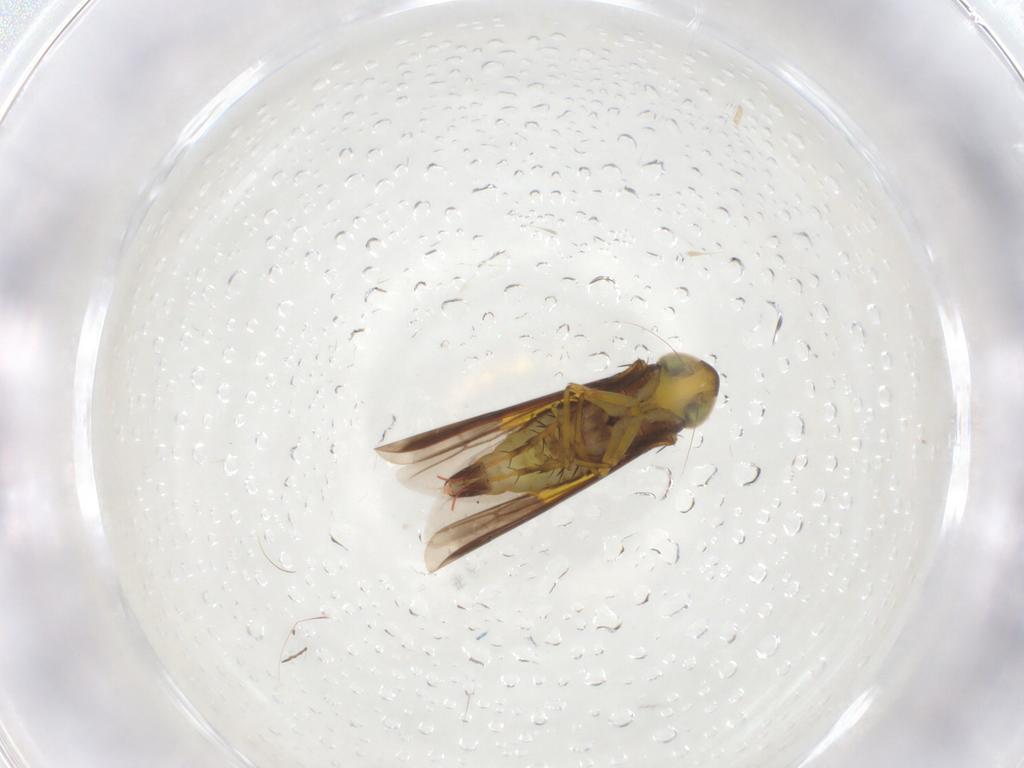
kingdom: Animalia
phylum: Arthropoda
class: Insecta
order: Hemiptera
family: Cicadellidae
